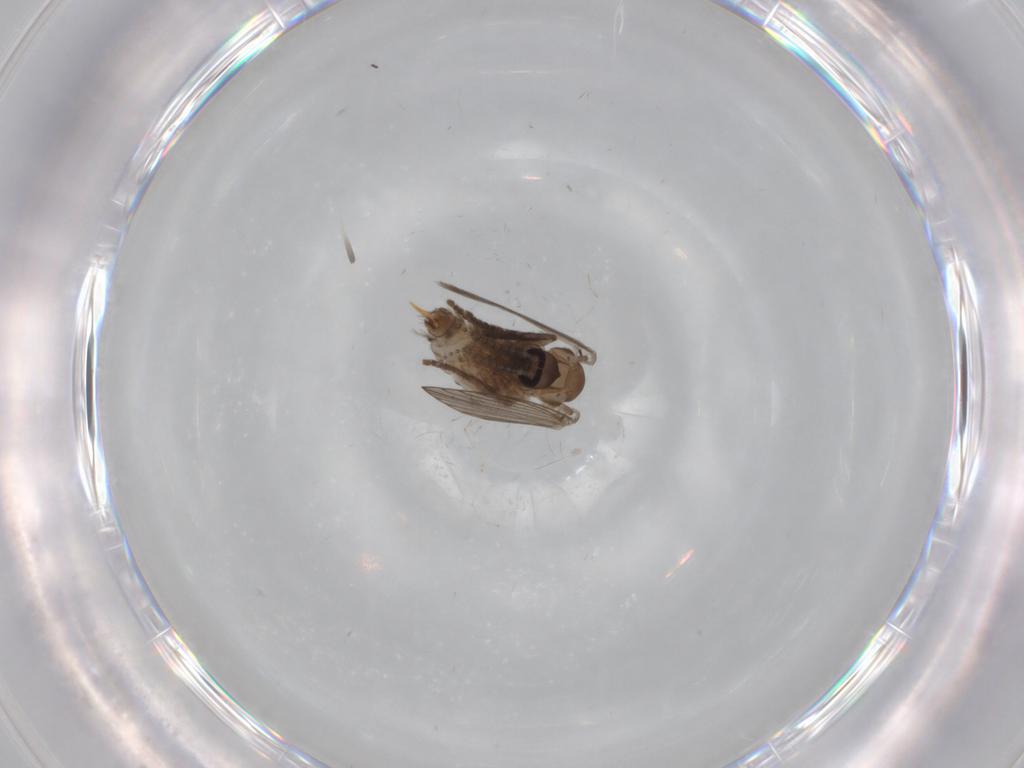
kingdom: Animalia
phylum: Arthropoda
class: Insecta
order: Diptera
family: Psychodidae
